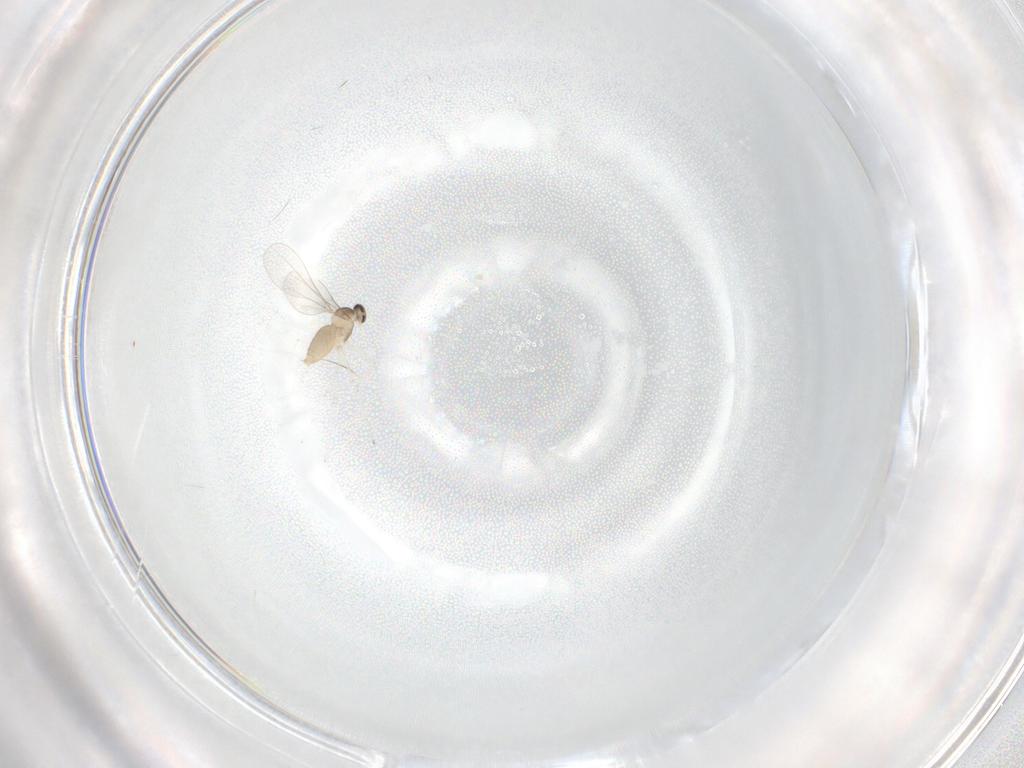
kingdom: Animalia
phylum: Arthropoda
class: Insecta
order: Diptera
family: Cecidomyiidae
